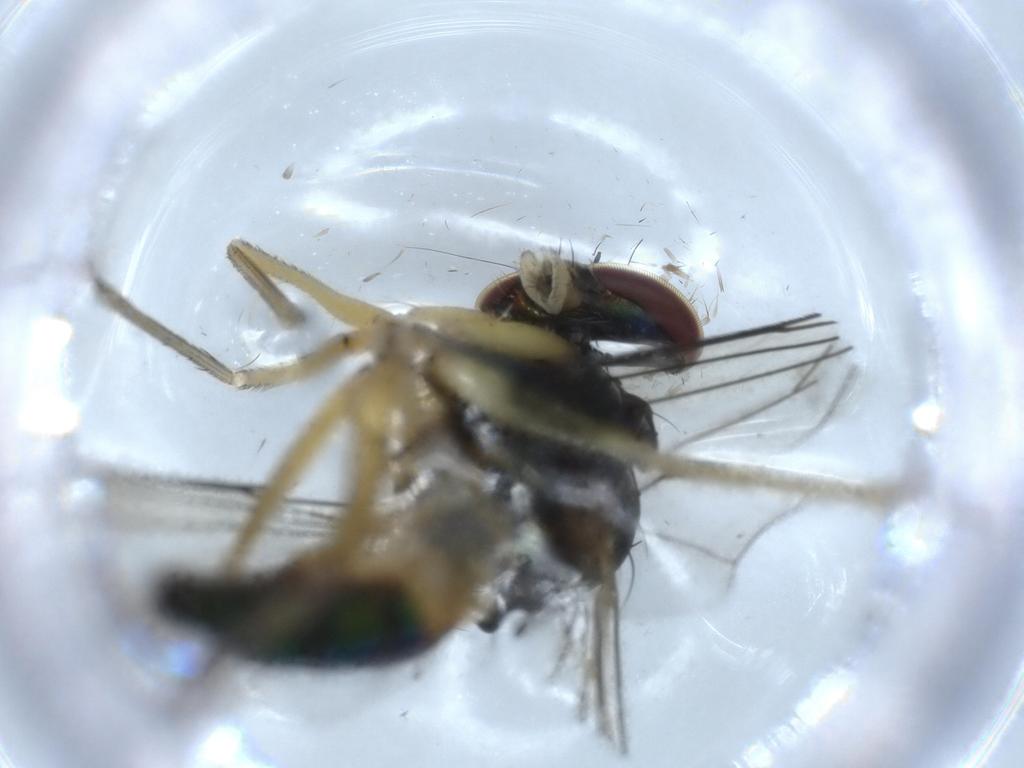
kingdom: Animalia
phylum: Arthropoda
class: Insecta
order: Diptera
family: Dolichopodidae
